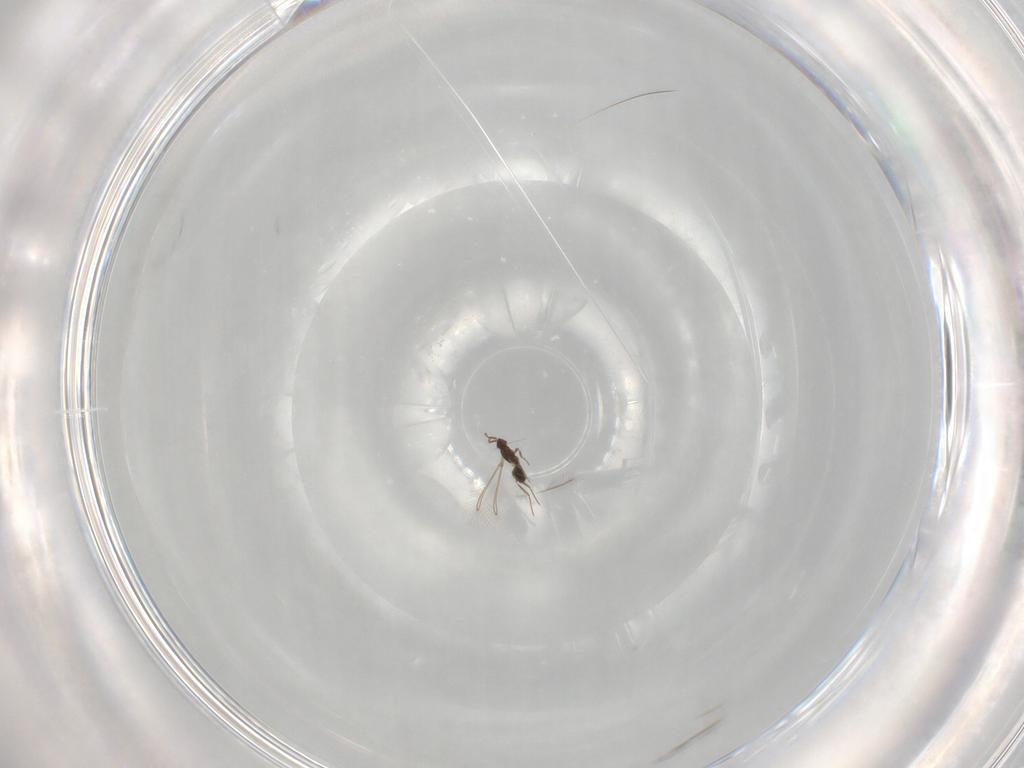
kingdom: Animalia
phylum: Arthropoda
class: Insecta
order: Hymenoptera
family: Mymaridae
